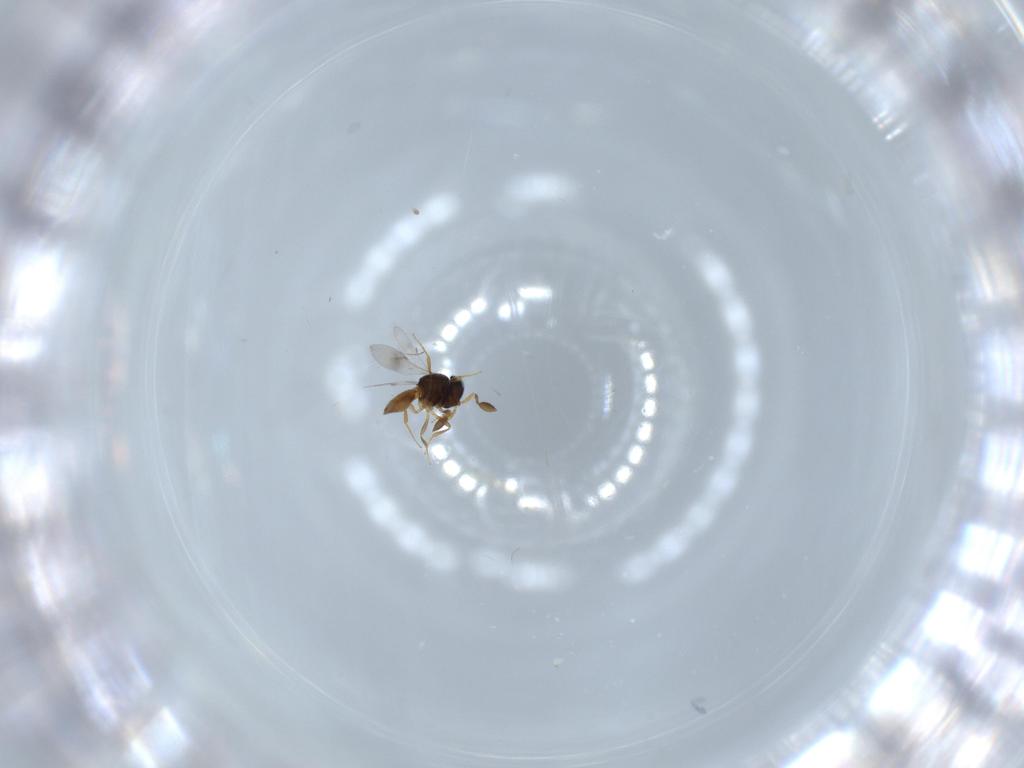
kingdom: Animalia
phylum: Arthropoda
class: Insecta
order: Hymenoptera
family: Scelionidae
